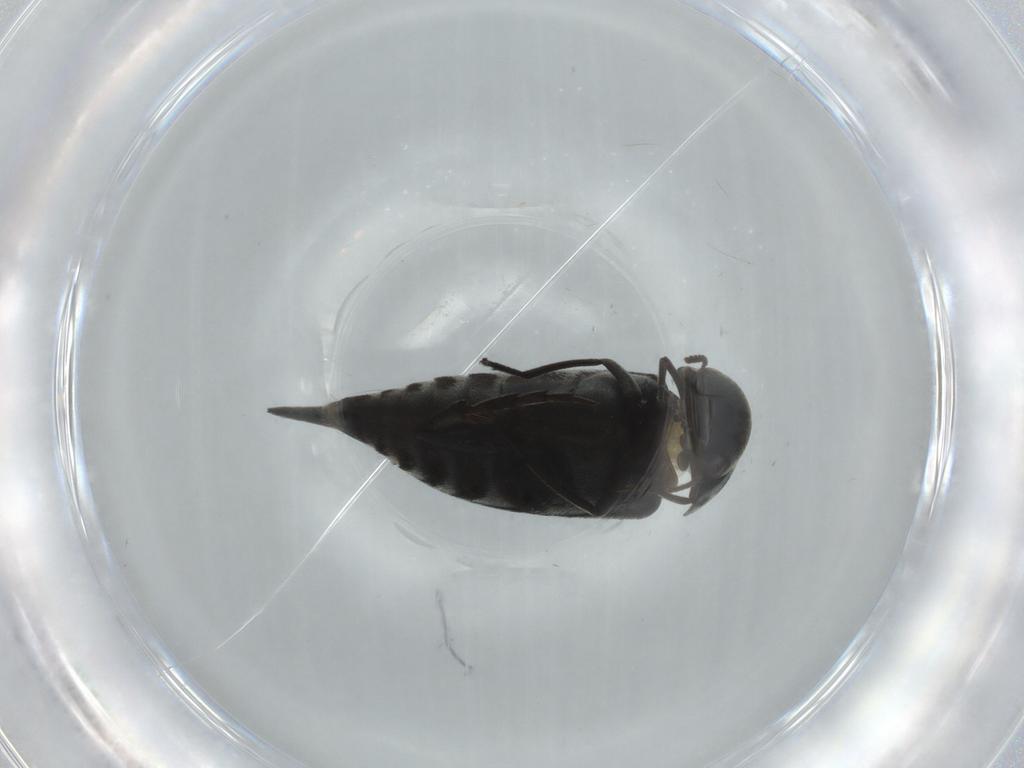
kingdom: Animalia
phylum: Arthropoda
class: Insecta
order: Coleoptera
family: Mordellidae
